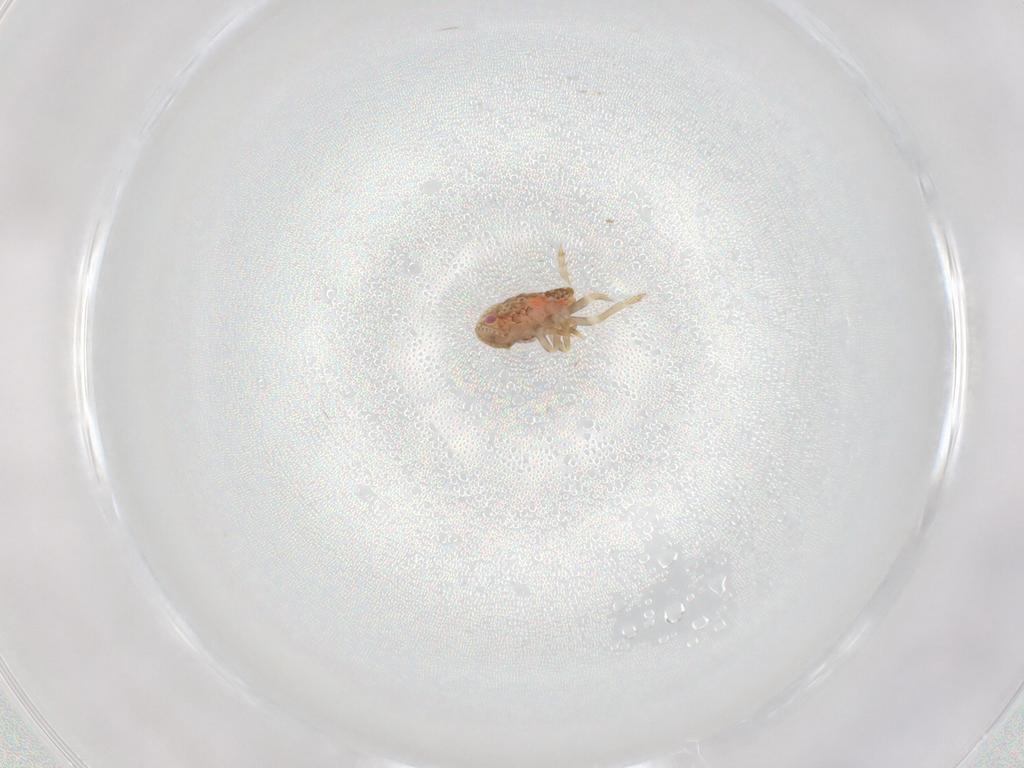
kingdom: Animalia
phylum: Arthropoda
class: Insecta
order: Hemiptera
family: Flatidae
